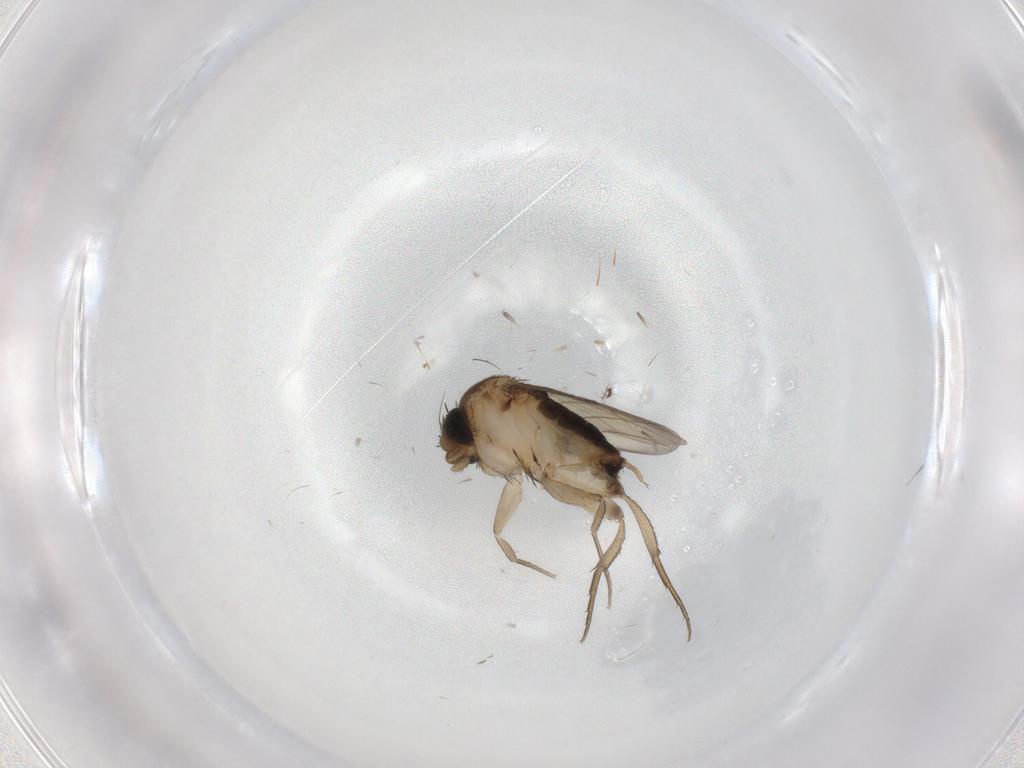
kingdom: Animalia
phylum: Arthropoda
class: Insecta
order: Diptera
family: Phoridae
